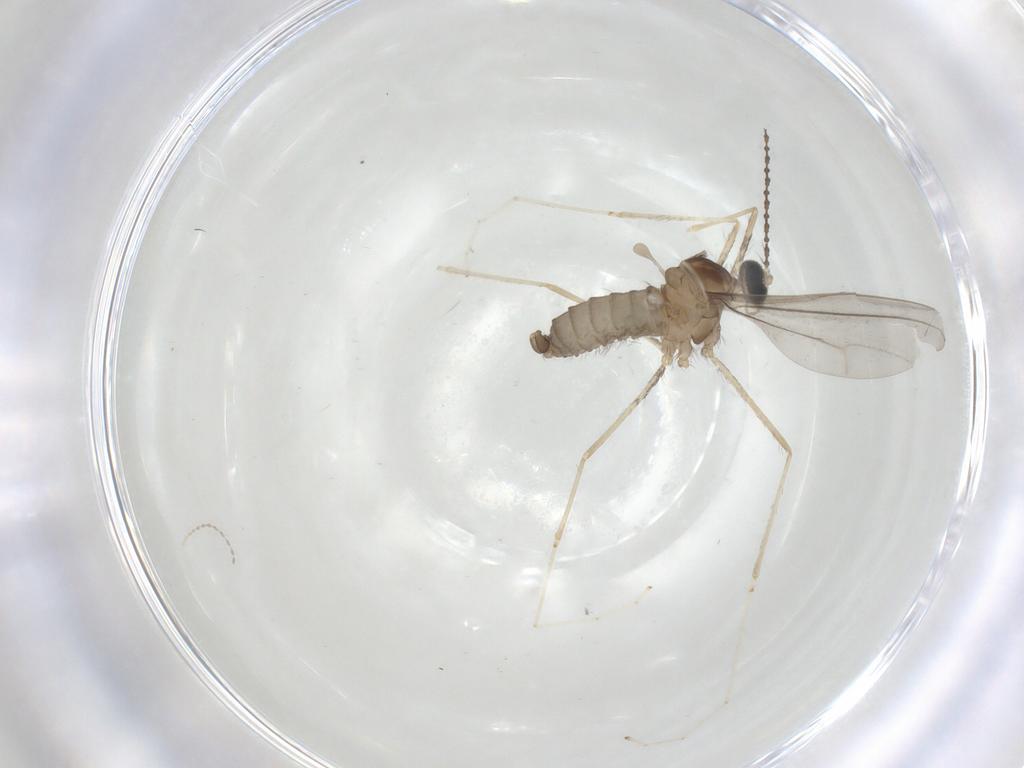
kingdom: Animalia
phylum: Arthropoda
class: Insecta
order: Diptera
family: Cecidomyiidae
